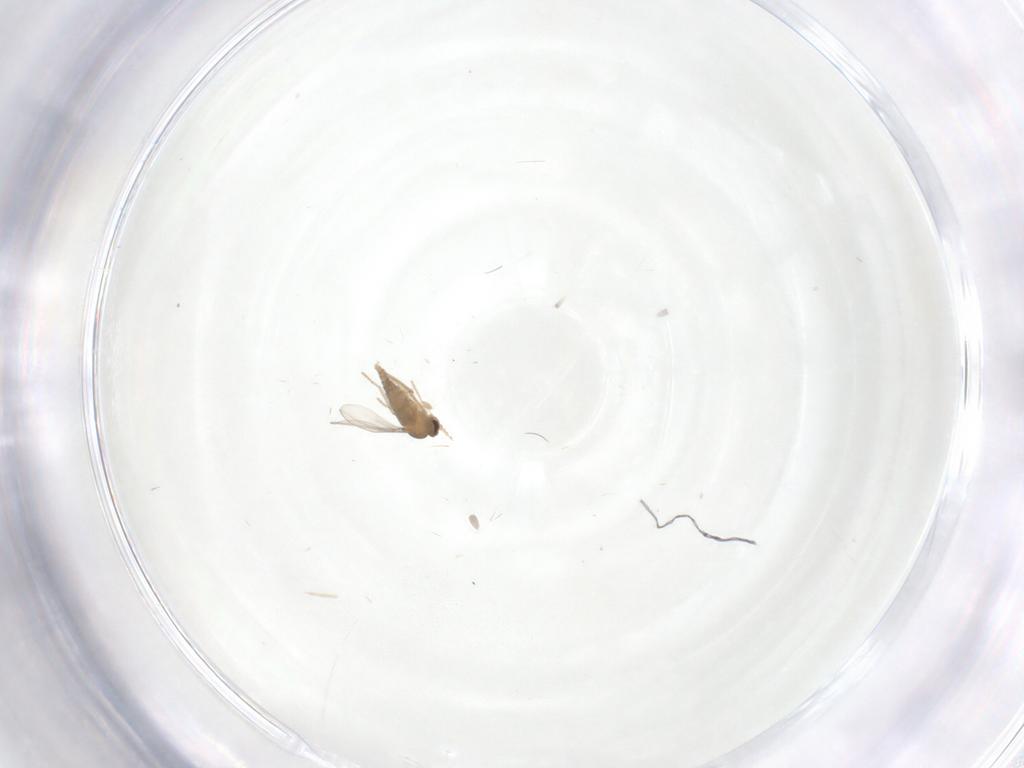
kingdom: Animalia
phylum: Arthropoda
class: Insecta
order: Diptera
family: Cecidomyiidae
